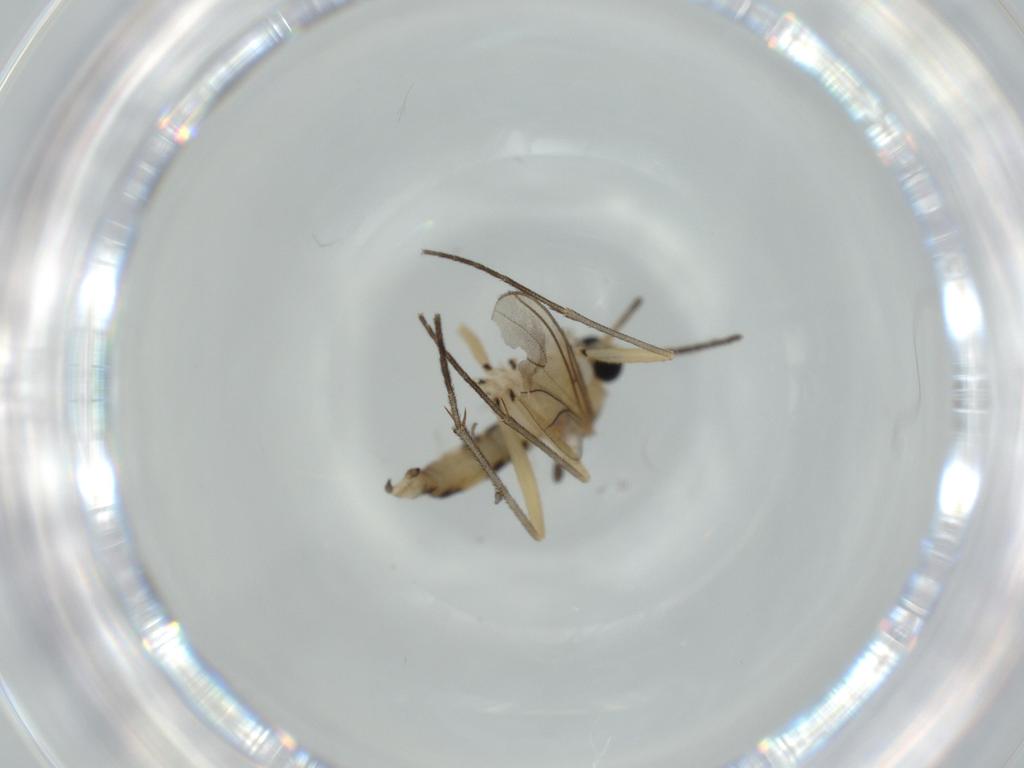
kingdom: Animalia
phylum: Arthropoda
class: Insecta
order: Diptera
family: Sciaridae
